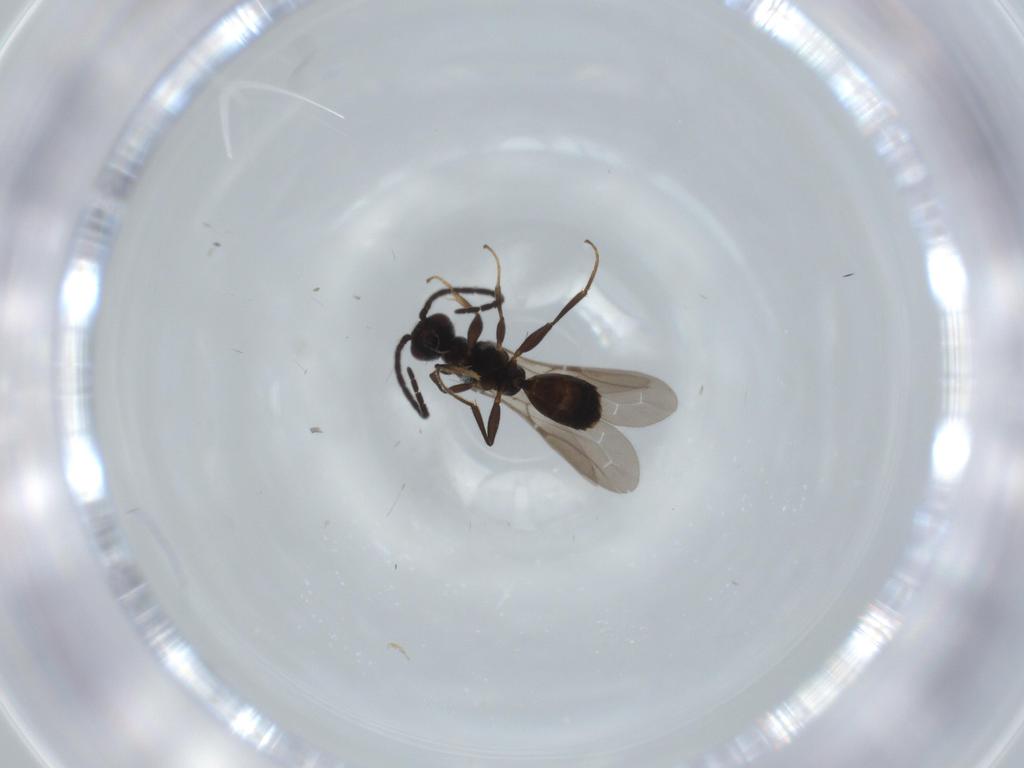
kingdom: Animalia
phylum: Arthropoda
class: Insecta
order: Hymenoptera
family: Bethylidae
